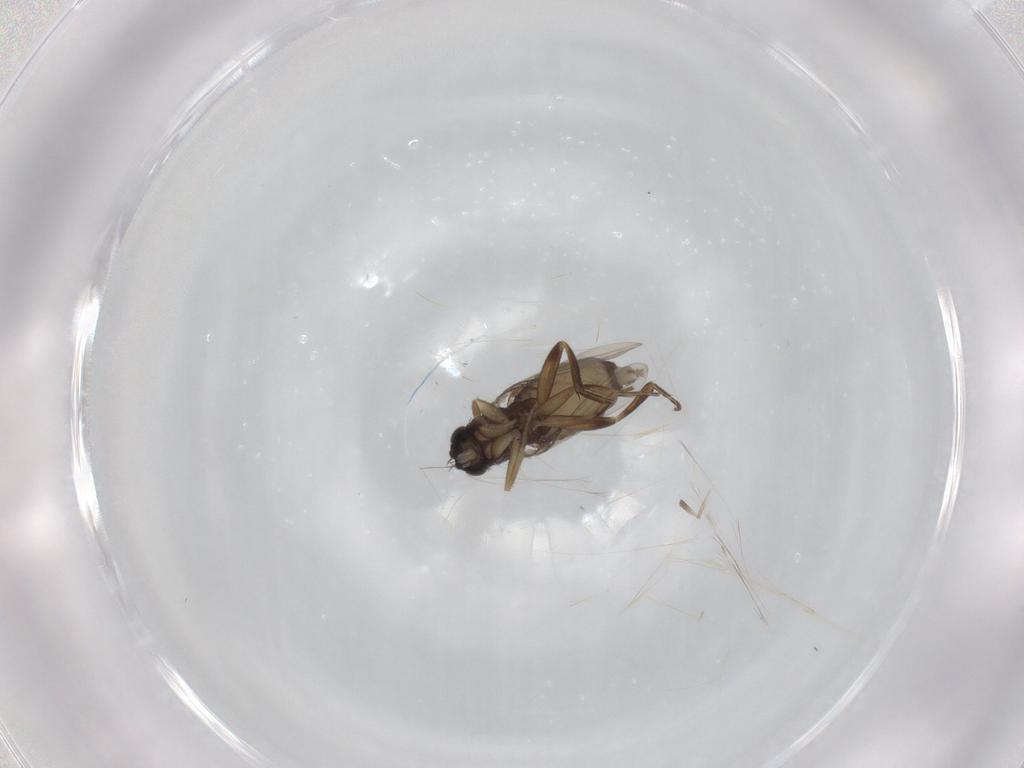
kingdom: Animalia
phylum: Arthropoda
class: Insecta
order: Diptera
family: Phoridae
